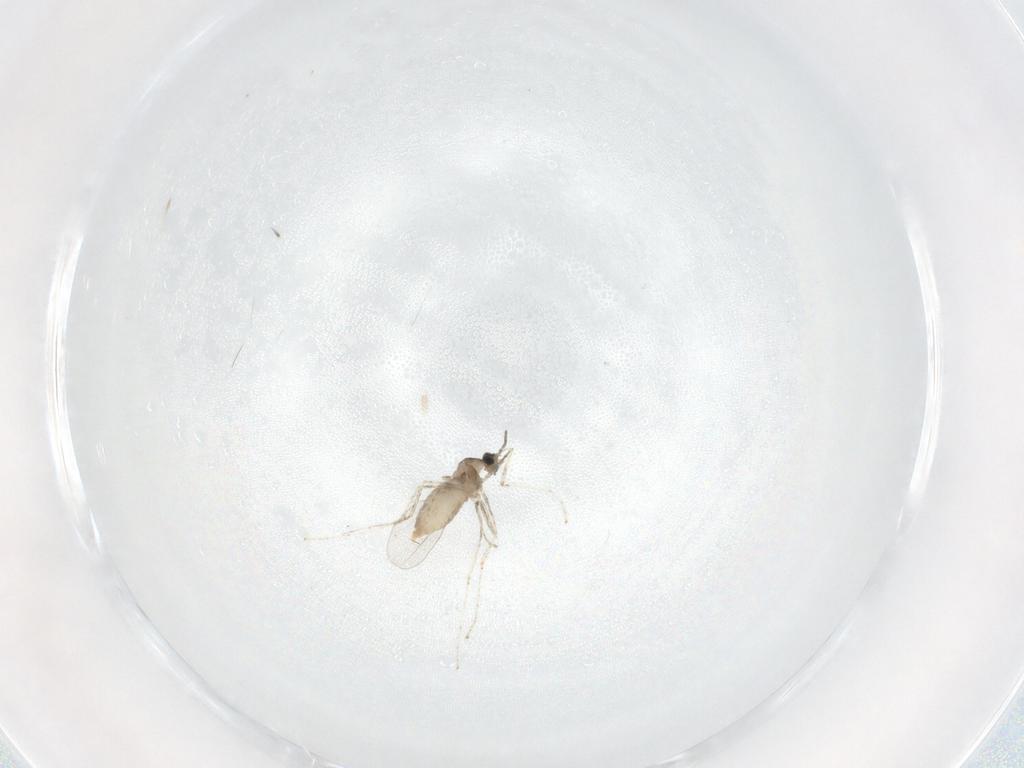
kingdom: Animalia
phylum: Arthropoda
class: Insecta
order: Diptera
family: Cecidomyiidae
